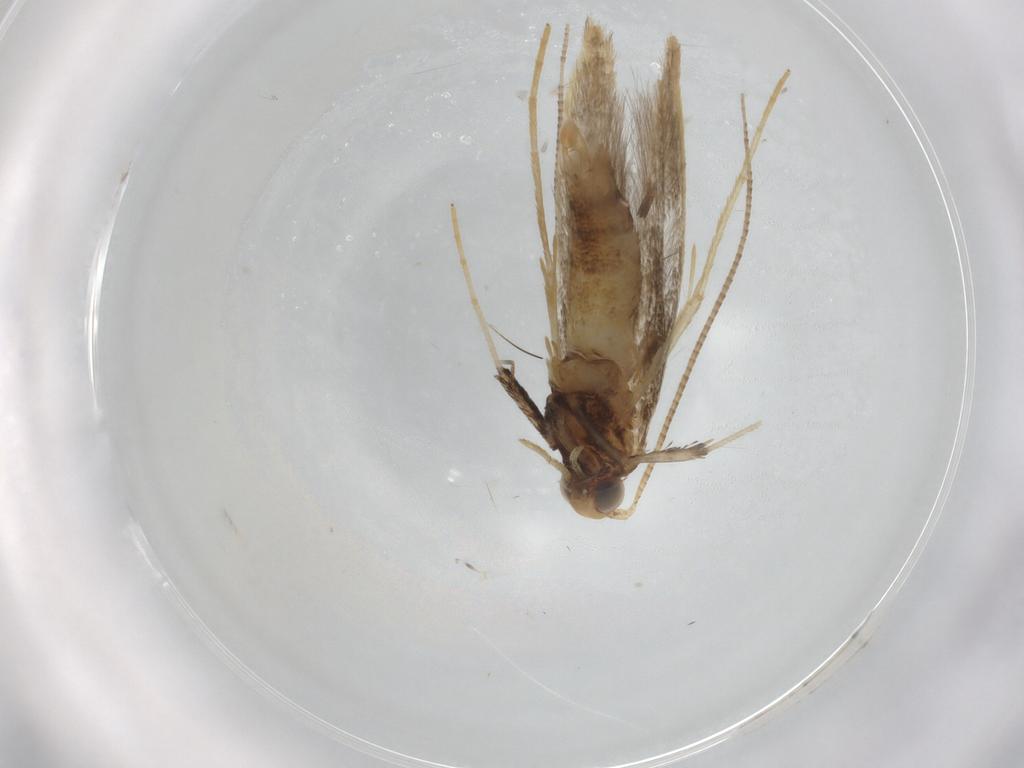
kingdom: Animalia
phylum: Arthropoda
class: Insecta
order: Lepidoptera
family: Gracillariidae
